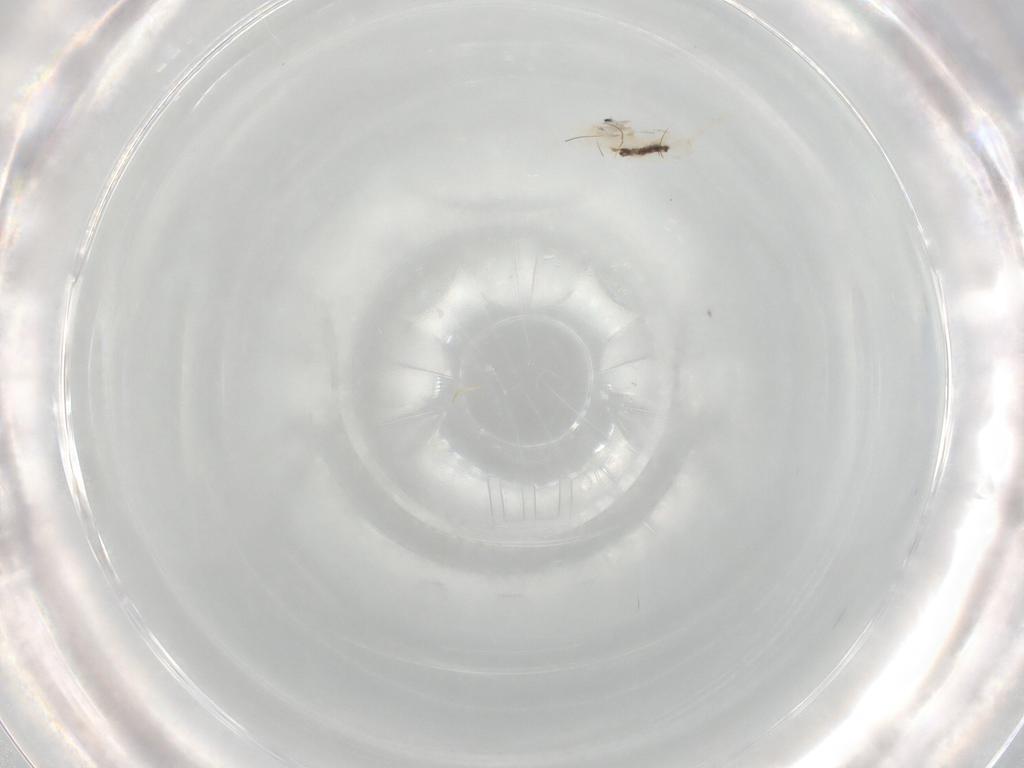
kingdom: Animalia
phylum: Arthropoda
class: Collembola
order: Entomobryomorpha
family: Entomobryidae
